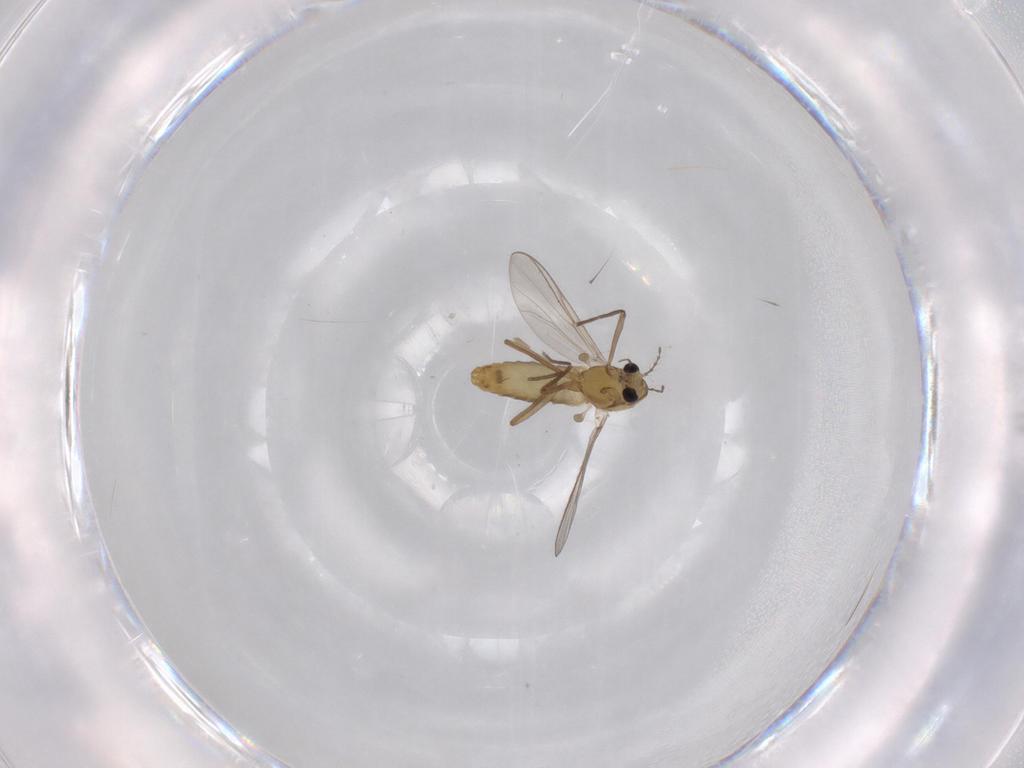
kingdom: Animalia
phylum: Arthropoda
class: Insecta
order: Diptera
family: Chironomidae
